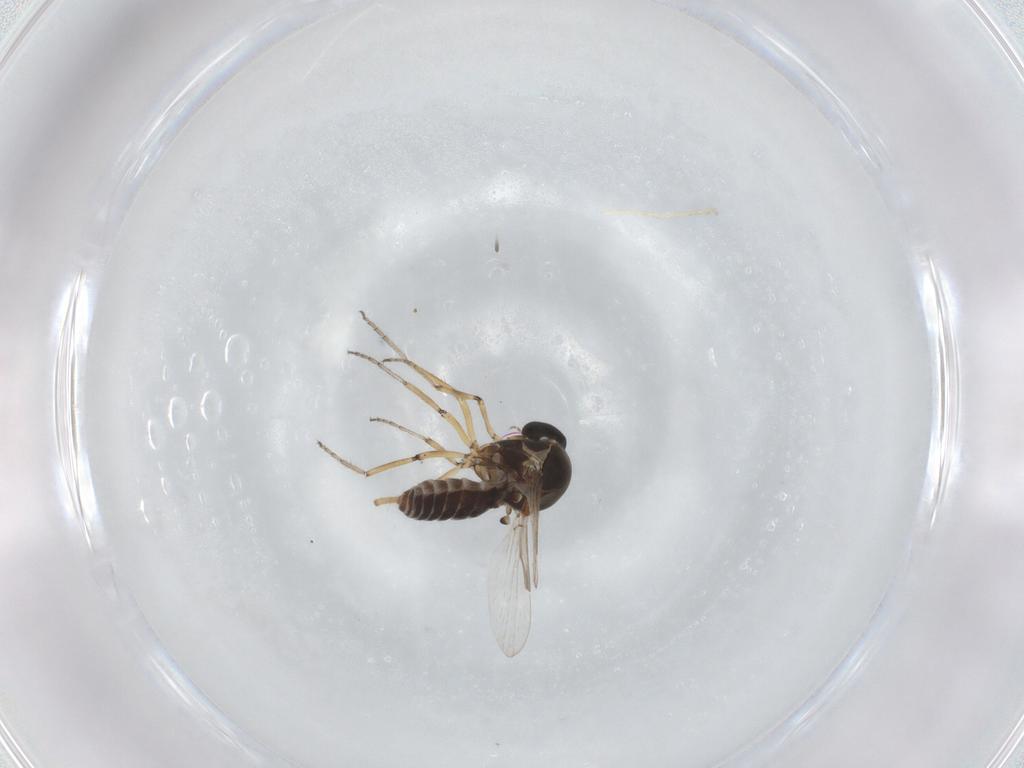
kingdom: Animalia
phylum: Arthropoda
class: Insecta
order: Diptera
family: Ceratopogonidae
